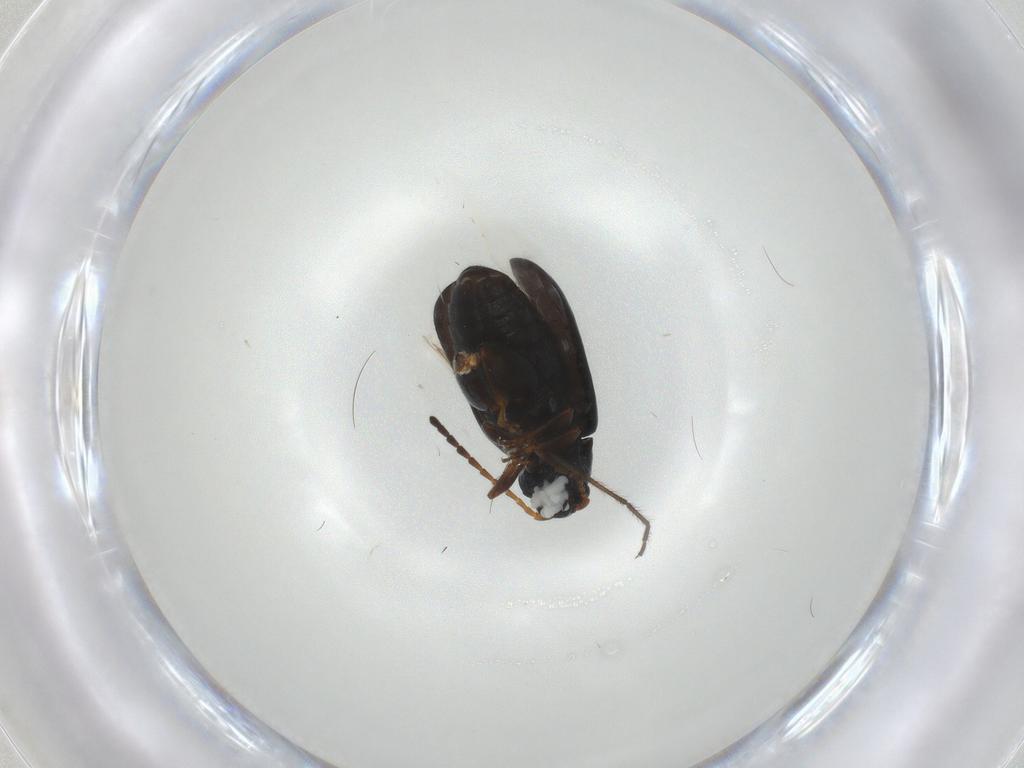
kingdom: Animalia
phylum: Arthropoda
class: Insecta
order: Coleoptera
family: Chrysomelidae
